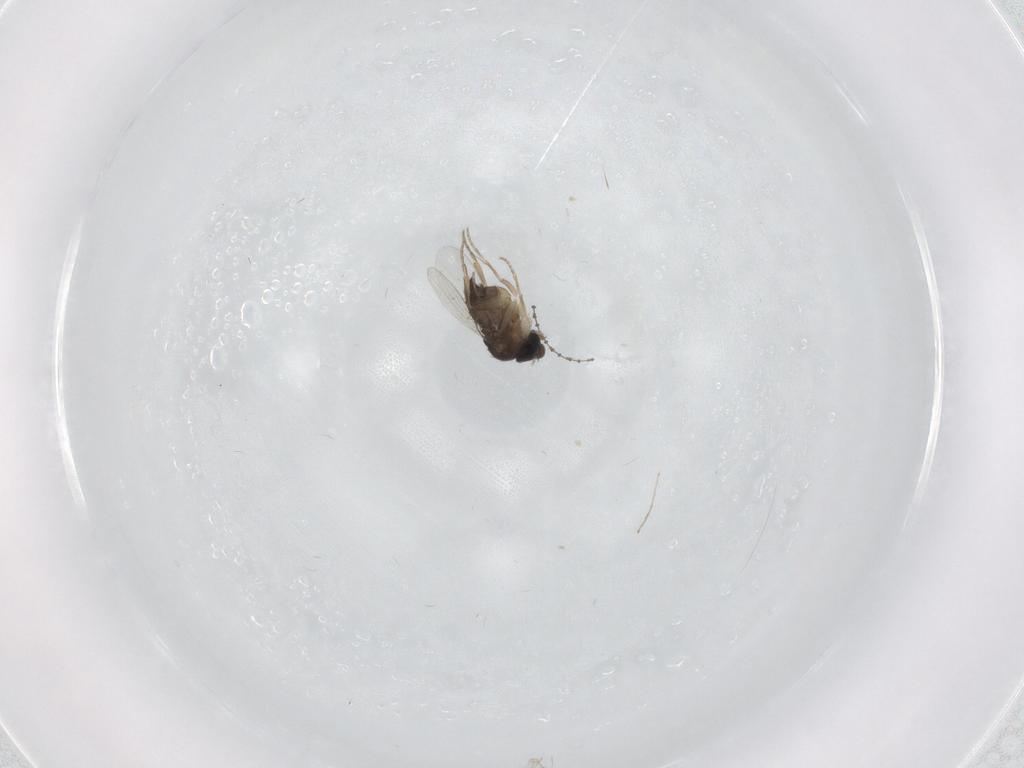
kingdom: Animalia
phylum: Arthropoda
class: Insecta
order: Diptera
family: Phoridae
